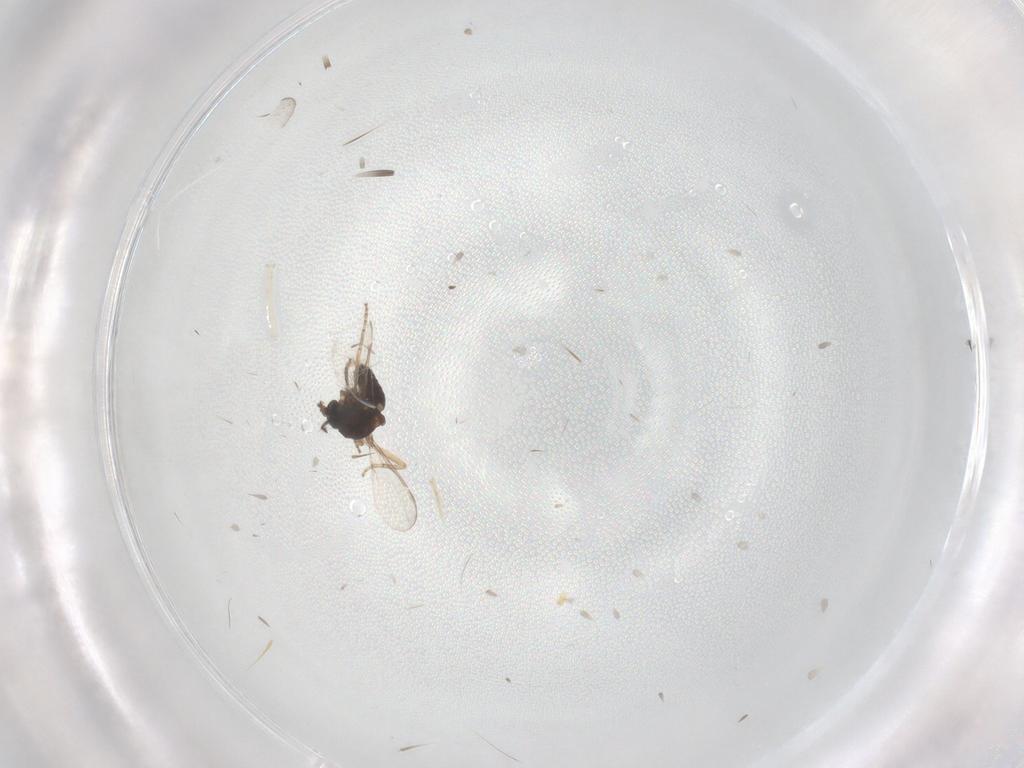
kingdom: Animalia
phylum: Arthropoda
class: Insecta
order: Diptera
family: Ceratopogonidae
